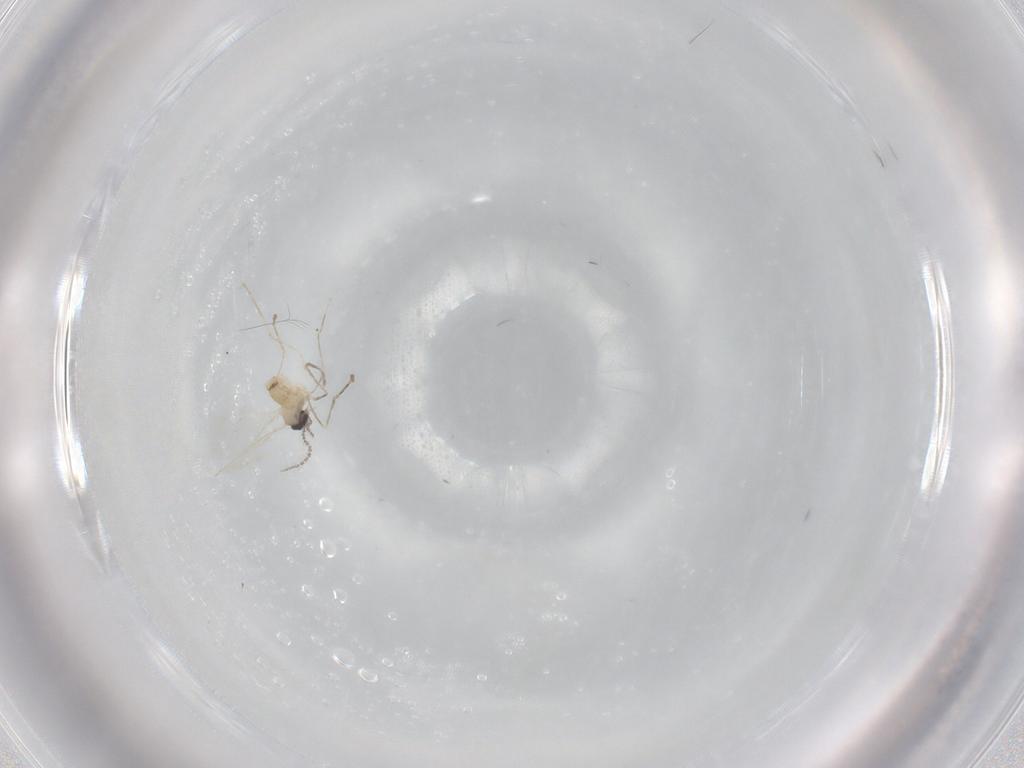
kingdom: Animalia
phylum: Arthropoda
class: Insecta
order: Diptera
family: Cecidomyiidae
